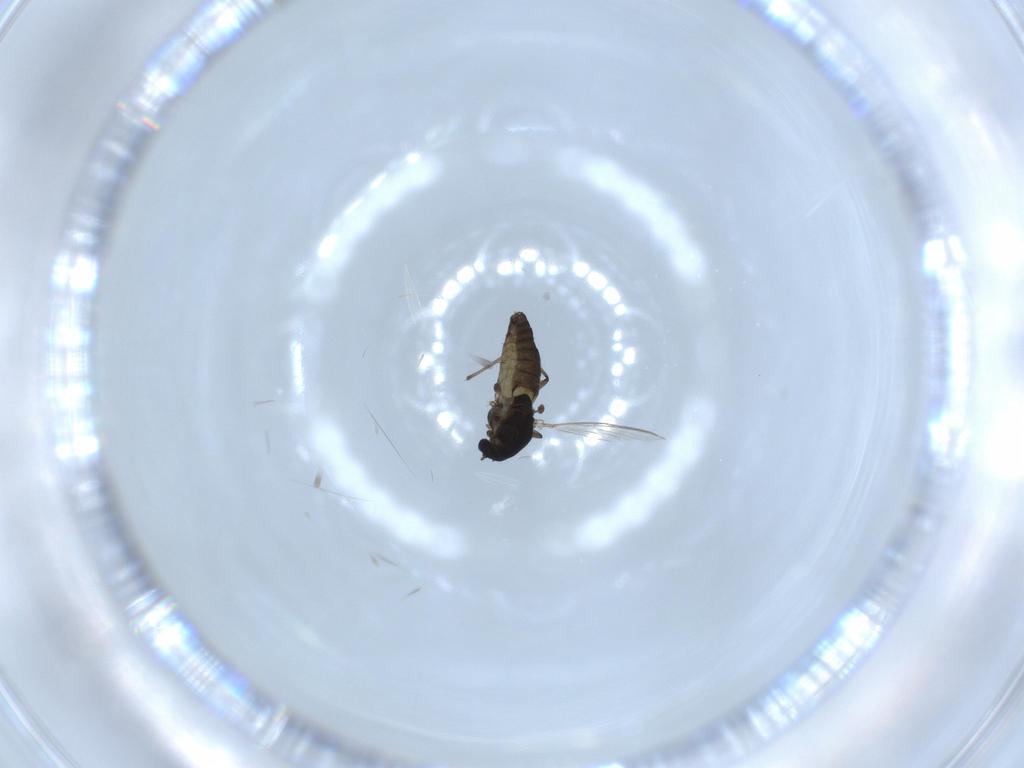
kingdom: Animalia
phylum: Arthropoda
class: Insecta
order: Diptera
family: Chironomidae
